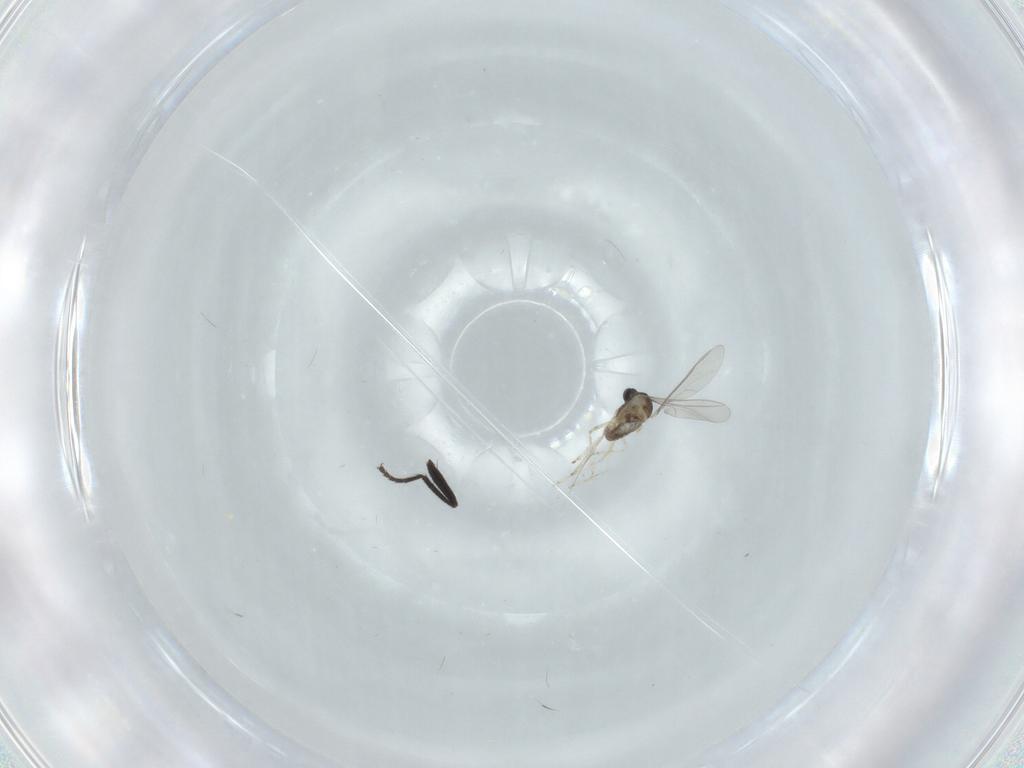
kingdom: Animalia
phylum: Arthropoda
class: Insecta
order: Diptera
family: Milichiidae
